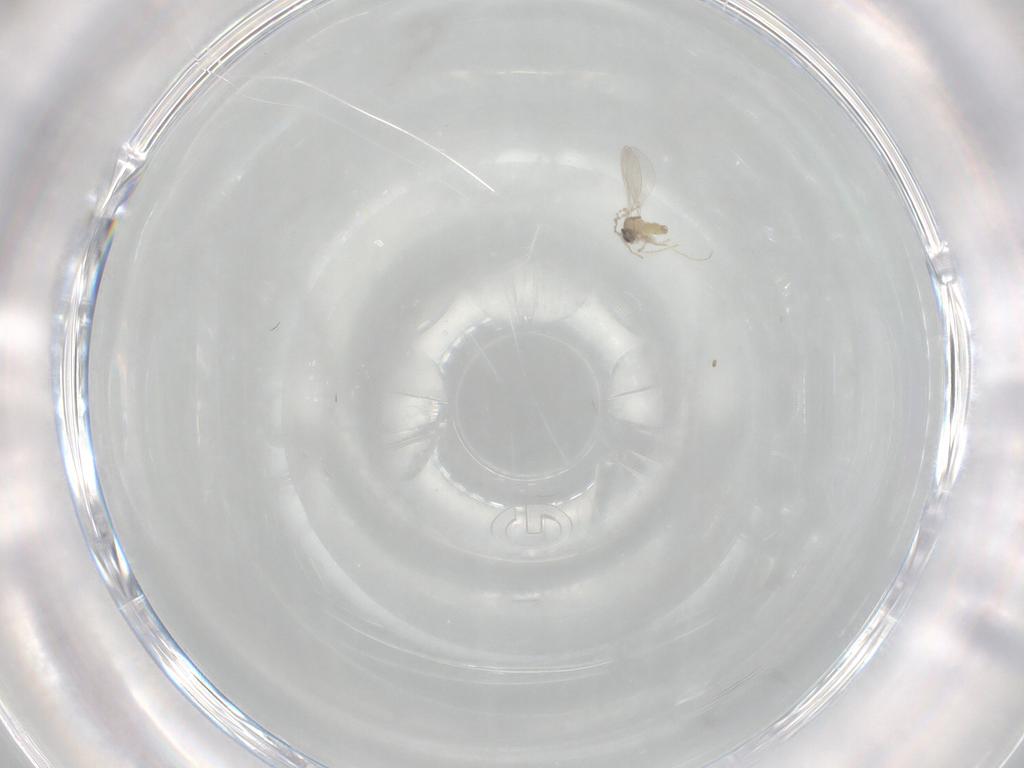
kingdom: Animalia
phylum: Arthropoda
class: Insecta
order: Diptera
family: Cecidomyiidae
